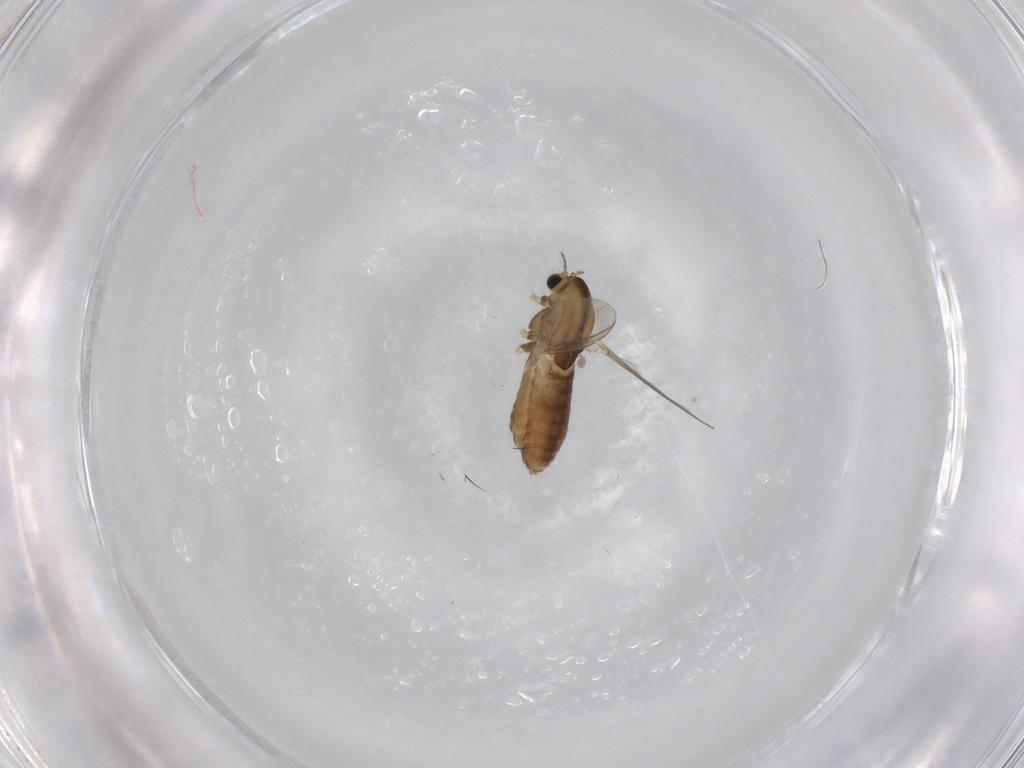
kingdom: Animalia
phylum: Arthropoda
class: Insecta
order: Diptera
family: Chironomidae
